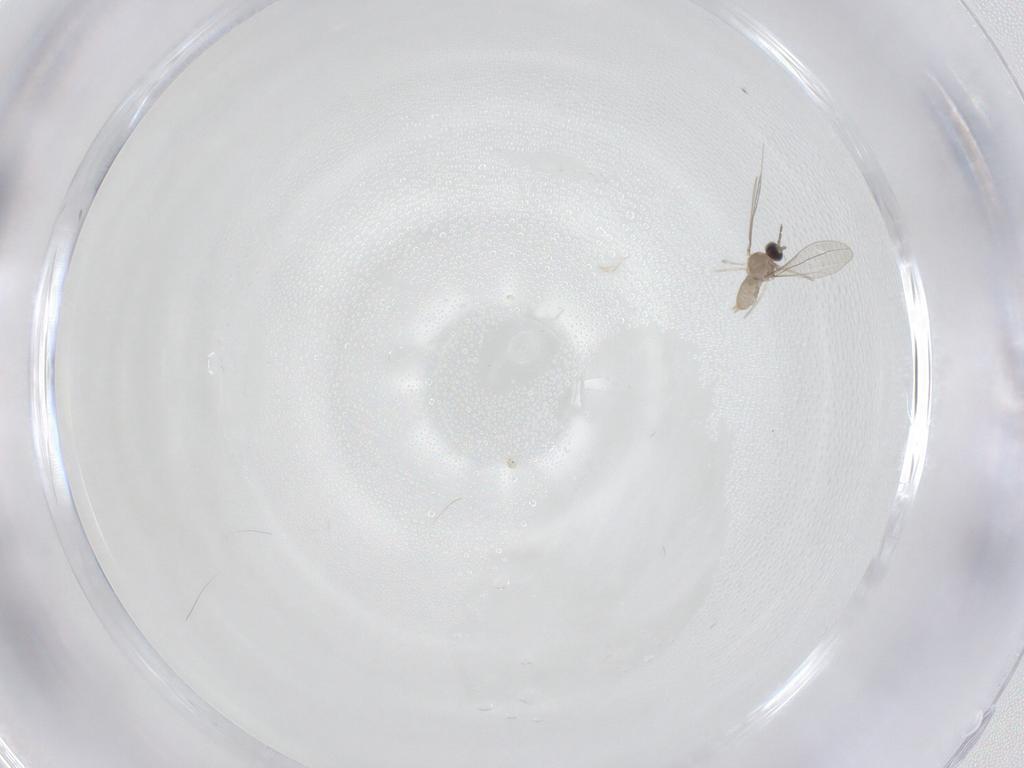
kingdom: Animalia
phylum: Arthropoda
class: Insecta
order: Diptera
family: Cecidomyiidae
